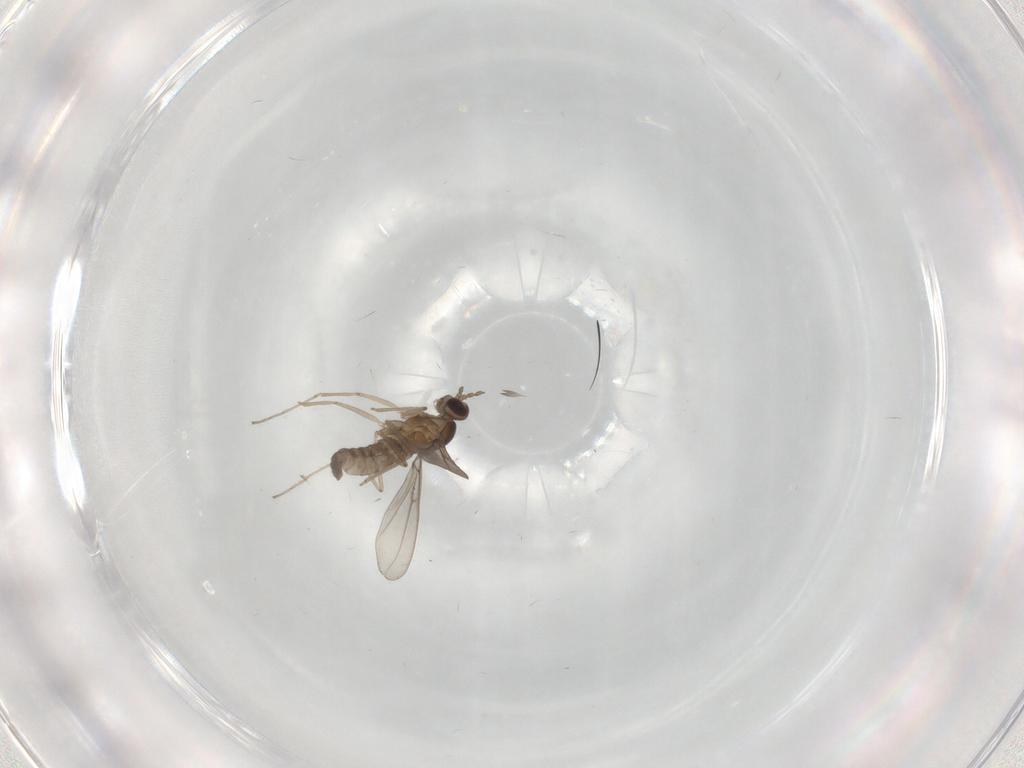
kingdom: Animalia
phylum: Arthropoda
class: Insecta
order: Diptera
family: Cecidomyiidae
